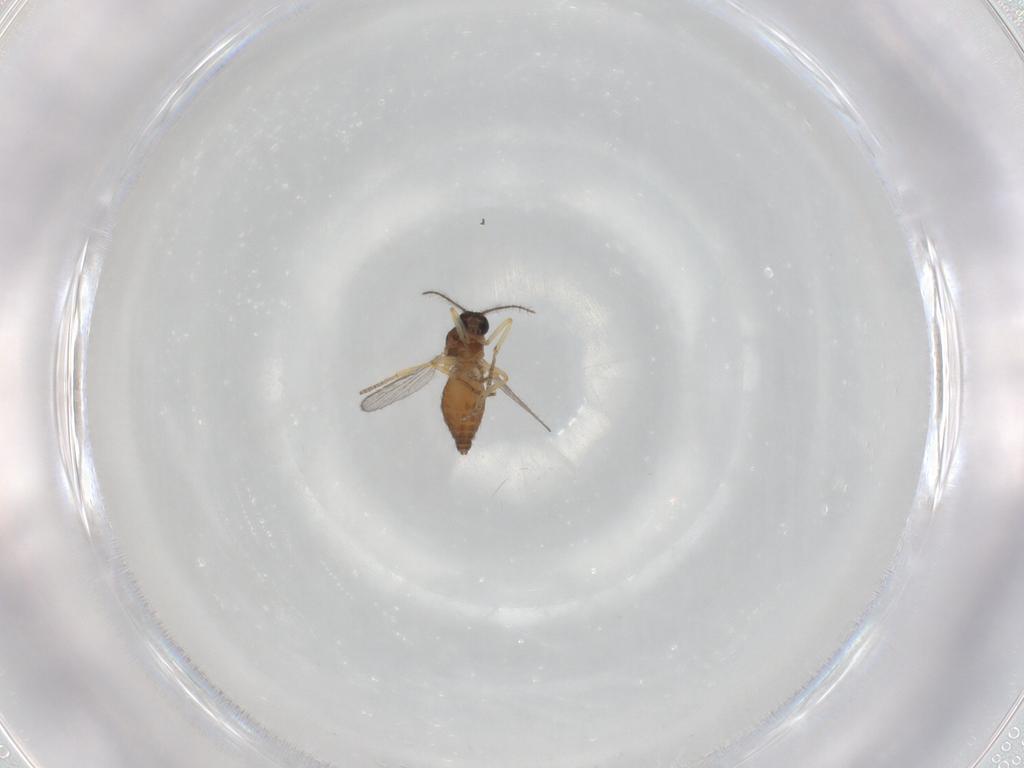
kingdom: Animalia
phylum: Arthropoda
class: Insecta
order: Diptera
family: Ceratopogonidae
